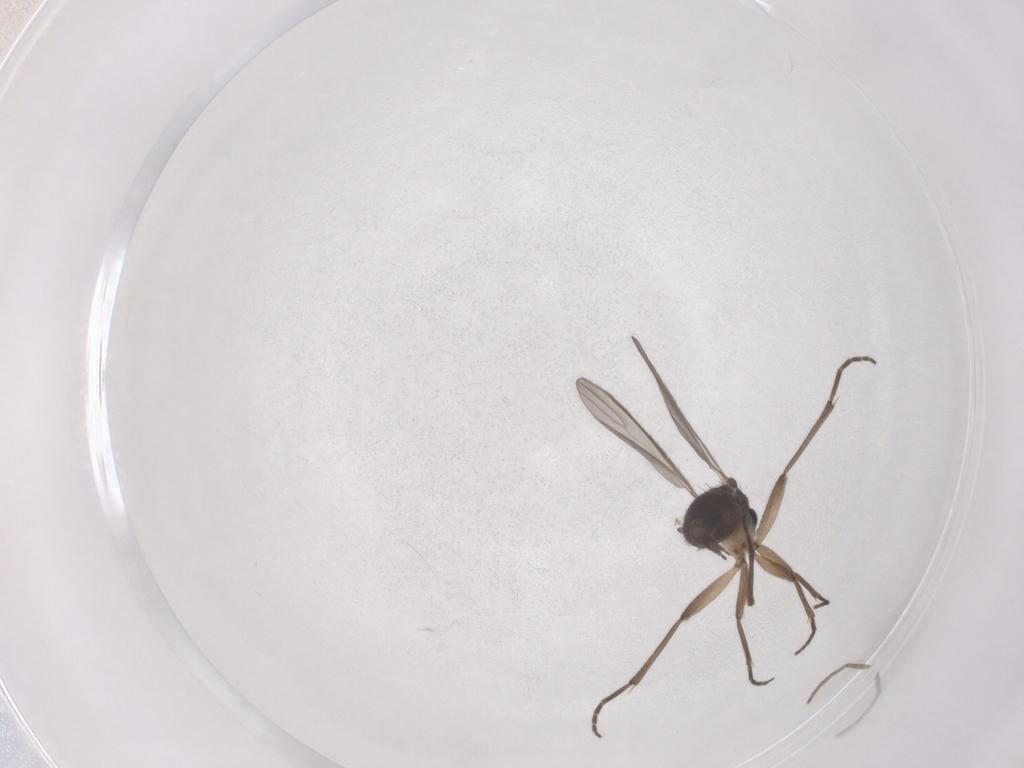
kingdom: Animalia
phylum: Arthropoda
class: Insecta
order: Diptera
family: Cecidomyiidae
